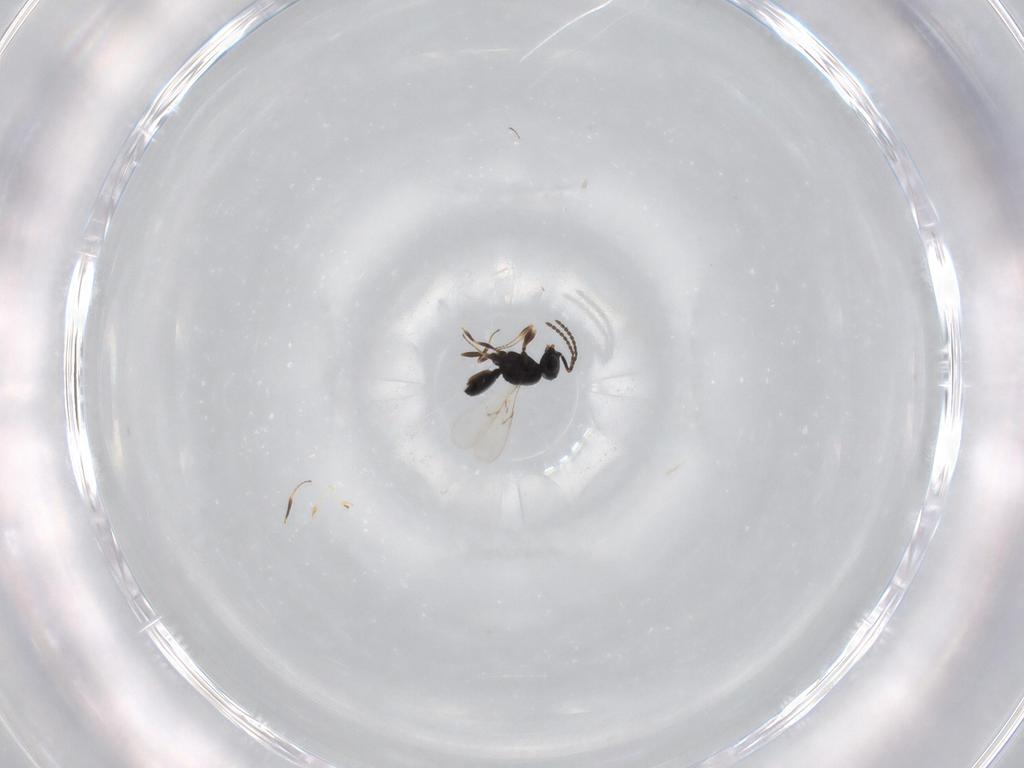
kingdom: Animalia
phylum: Arthropoda
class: Insecta
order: Hymenoptera
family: Scelionidae
